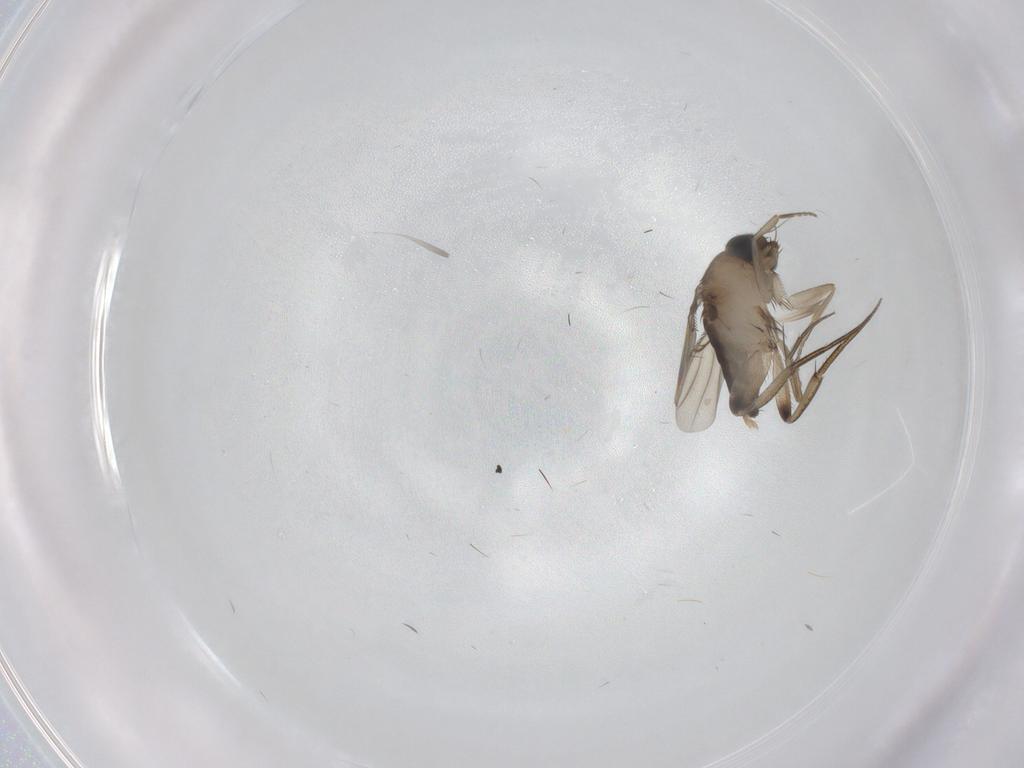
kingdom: Animalia
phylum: Arthropoda
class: Insecta
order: Diptera
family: Phoridae
